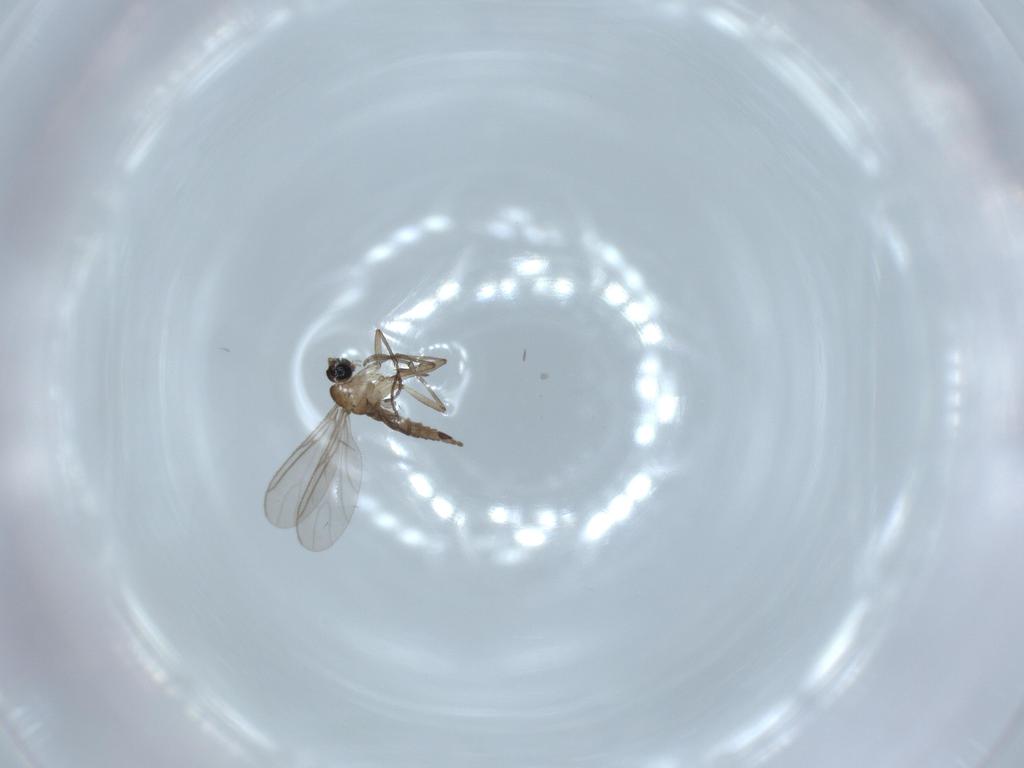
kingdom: Animalia
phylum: Arthropoda
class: Insecta
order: Diptera
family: Sciaridae
